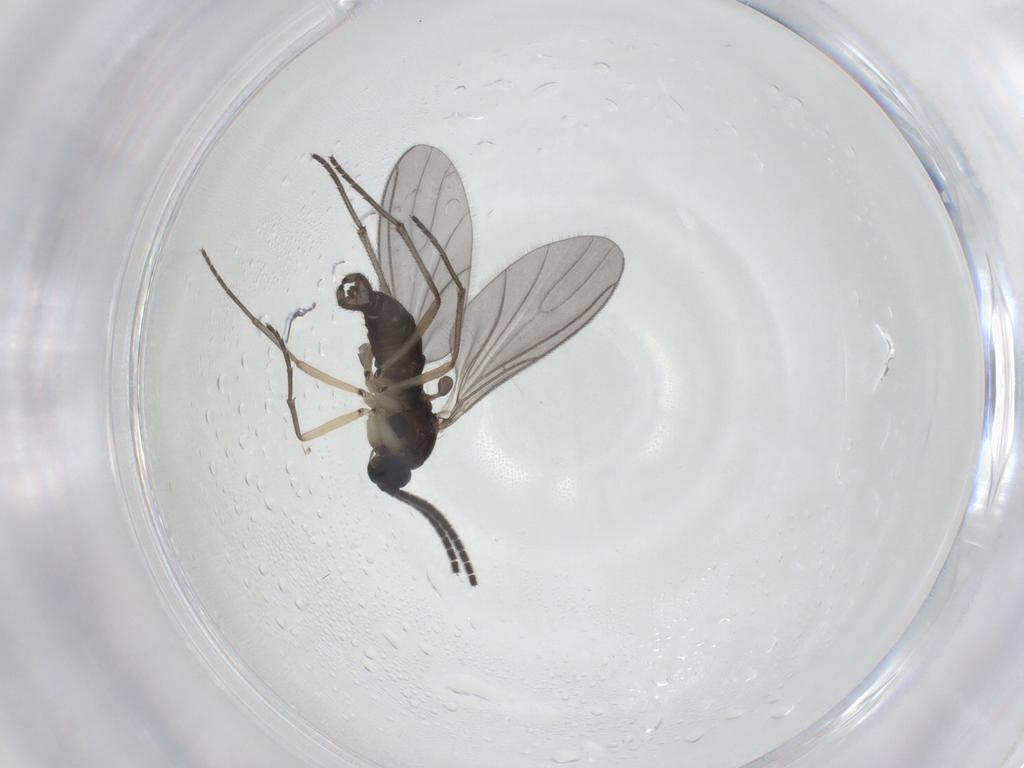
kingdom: Animalia
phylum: Arthropoda
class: Insecta
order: Diptera
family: Sciaridae
